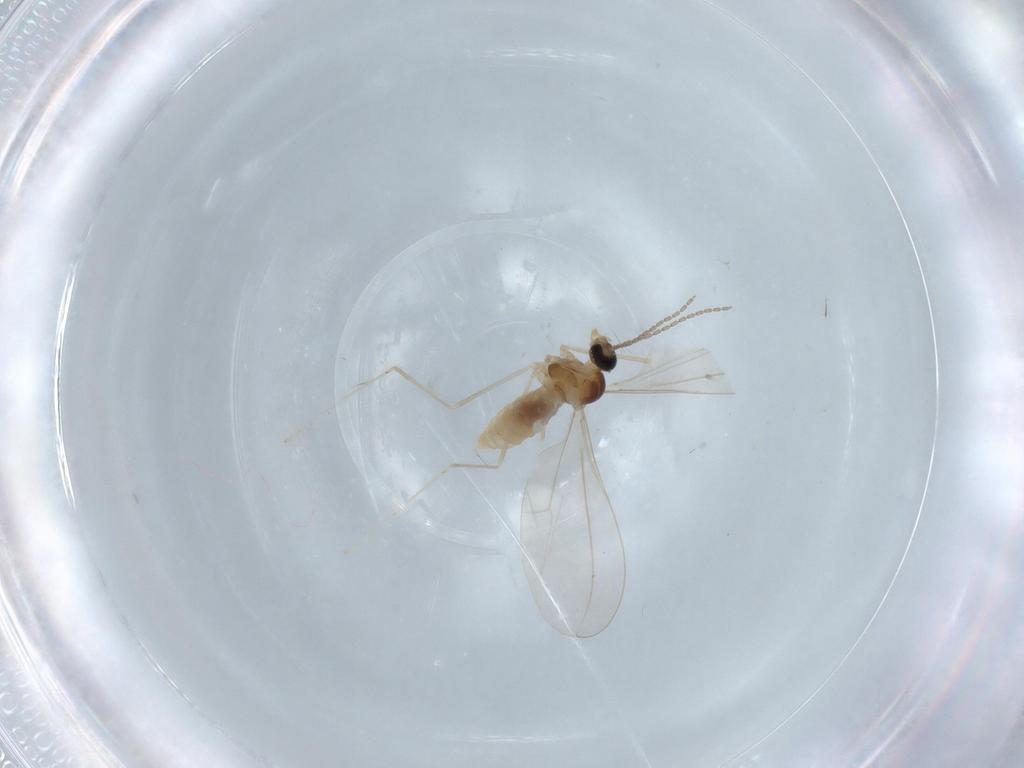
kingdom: Animalia
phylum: Arthropoda
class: Insecta
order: Diptera
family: Cecidomyiidae
